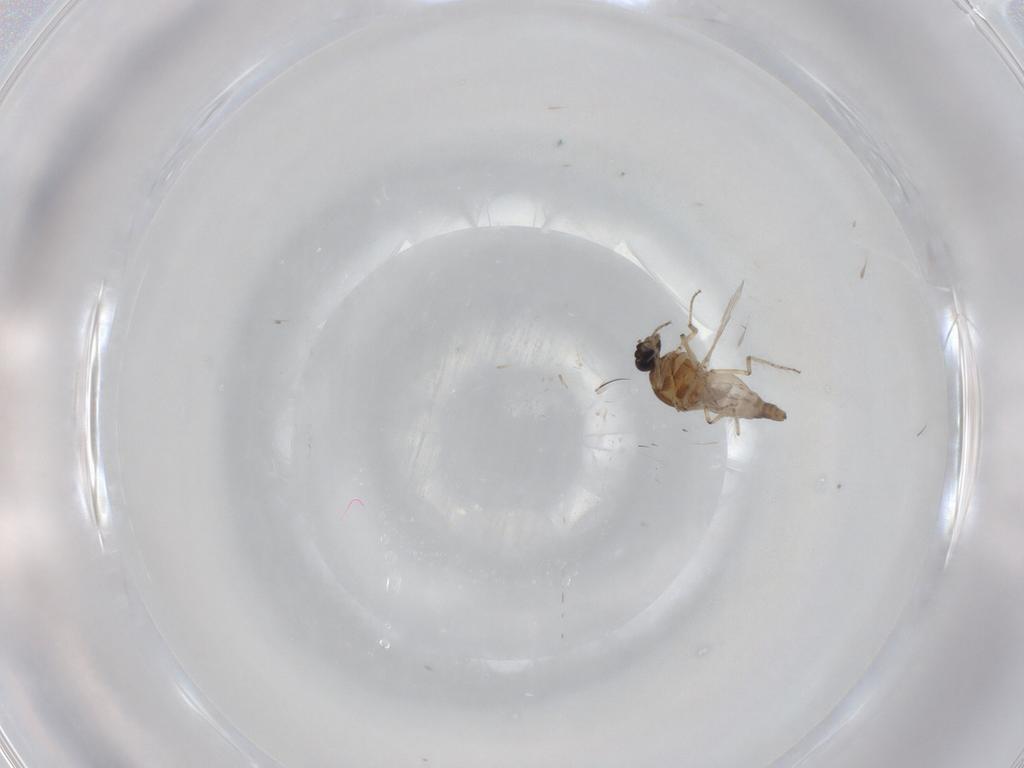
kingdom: Animalia
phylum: Arthropoda
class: Insecta
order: Diptera
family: Ceratopogonidae
